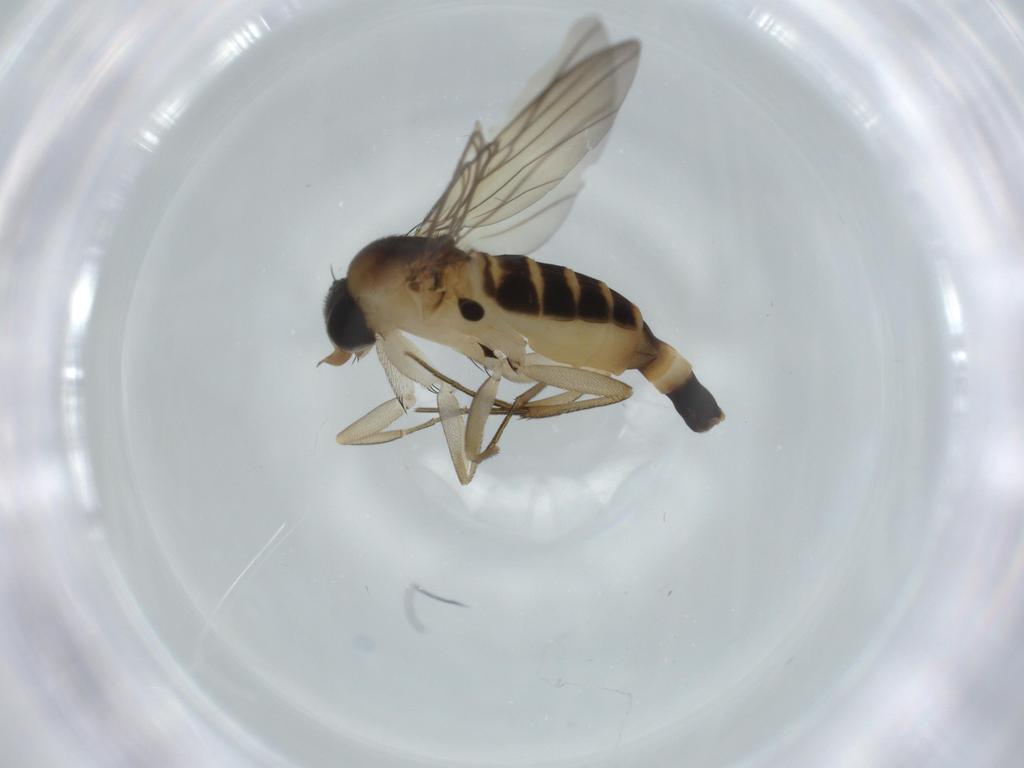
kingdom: Animalia
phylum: Arthropoda
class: Insecta
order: Diptera
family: Phoridae
